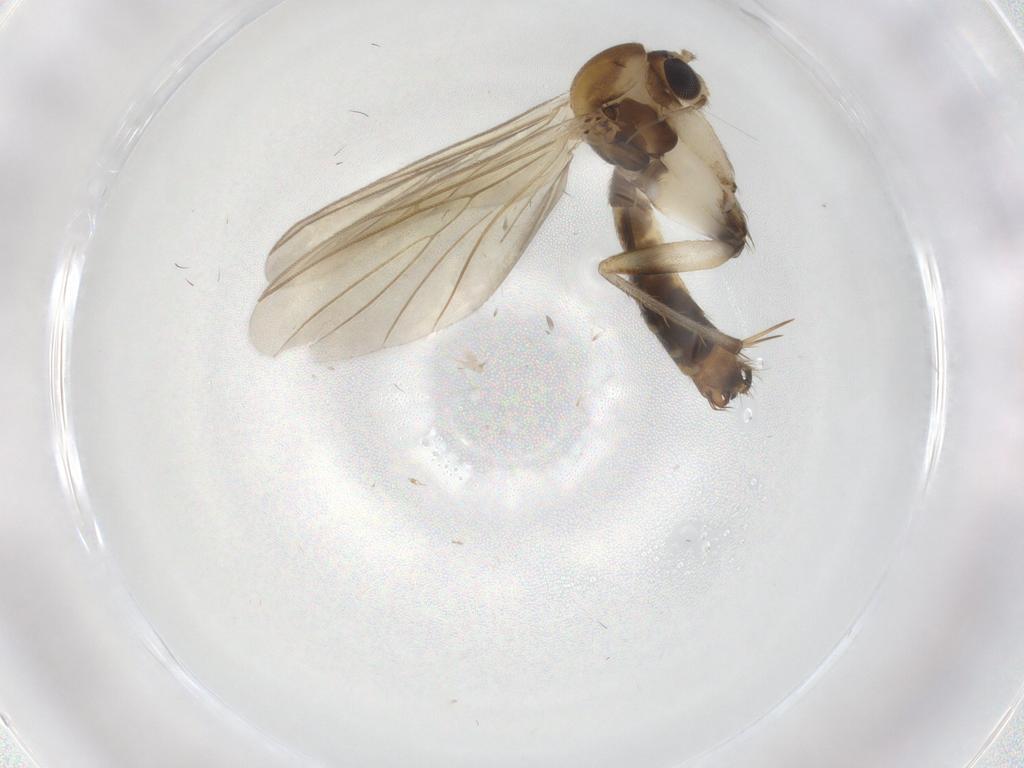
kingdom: Animalia
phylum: Arthropoda
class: Insecta
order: Diptera
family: Mycetophilidae
